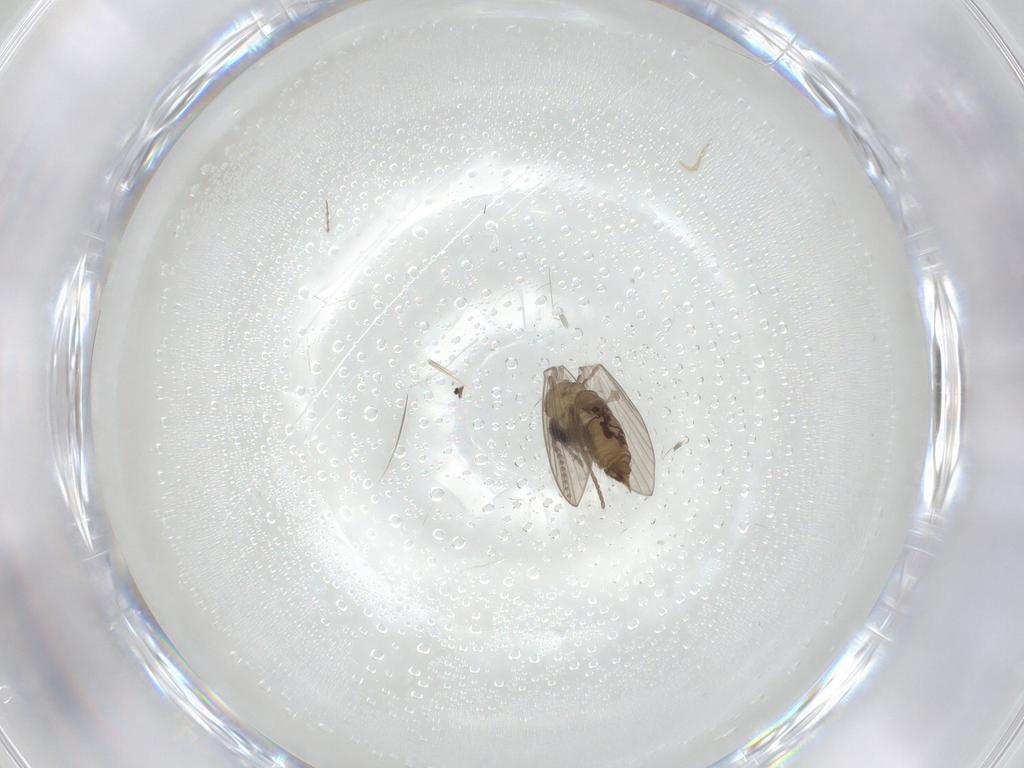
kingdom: Animalia
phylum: Arthropoda
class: Insecta
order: Diptera
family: Psychodidae
